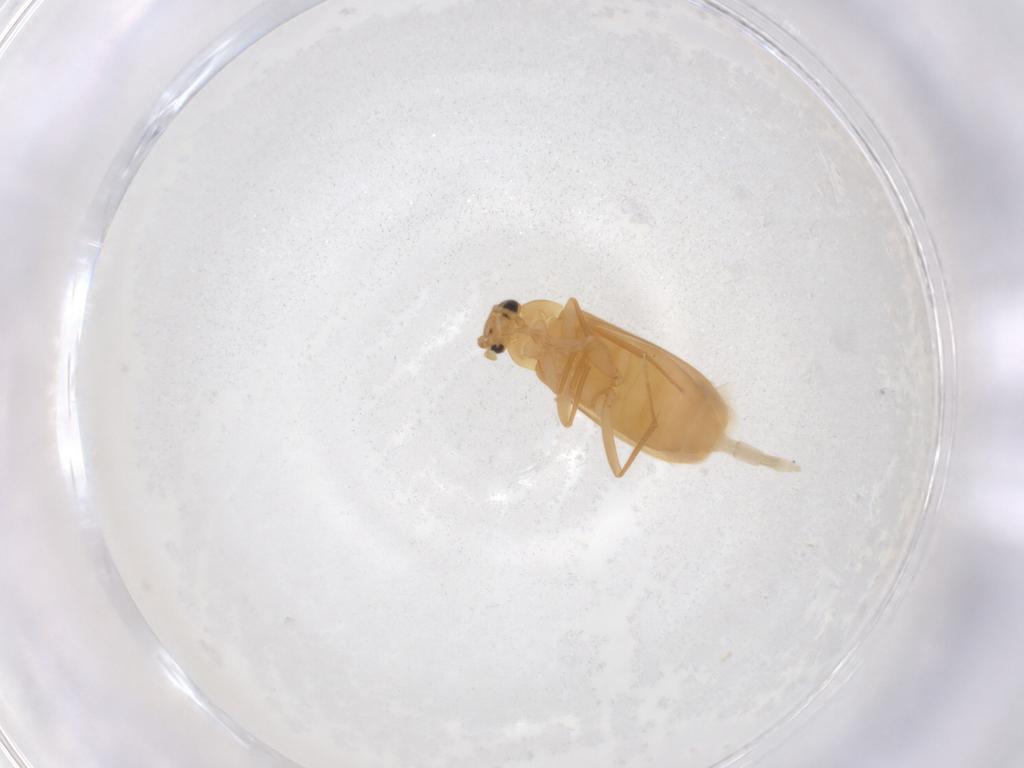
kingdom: Animalia
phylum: Arthropoda
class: Insecta
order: Coleoptera
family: Scraptiidae
